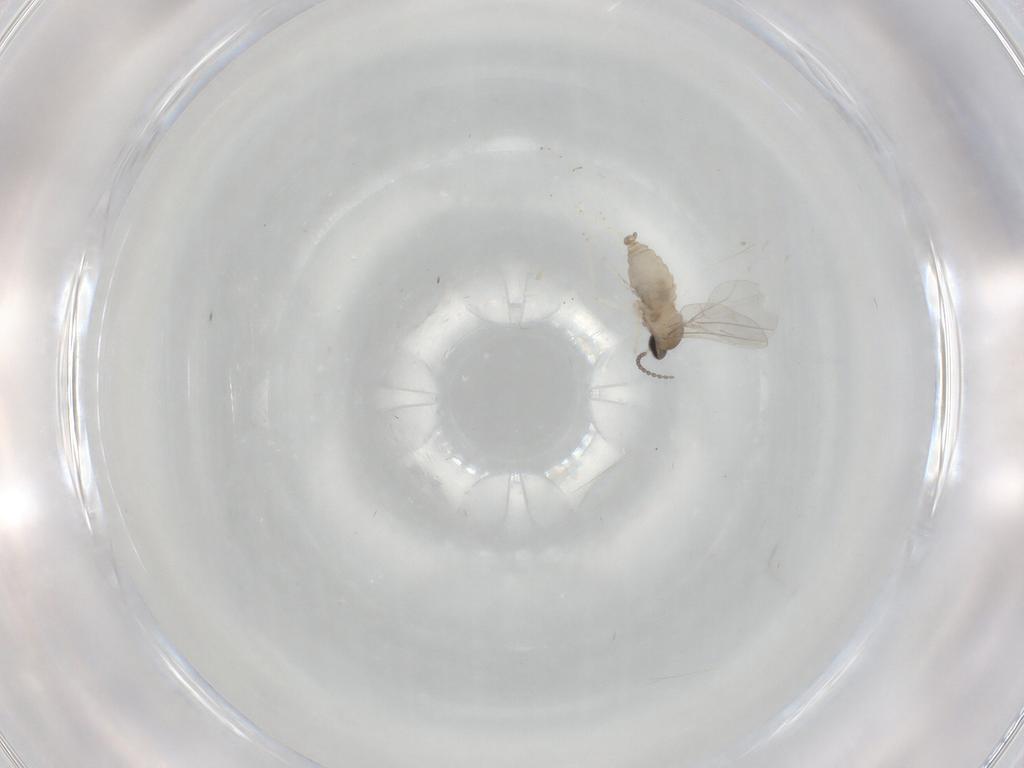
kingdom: Animalia
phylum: Arthropoda
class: Insecta
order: Diptera
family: Cecidomyiidae
